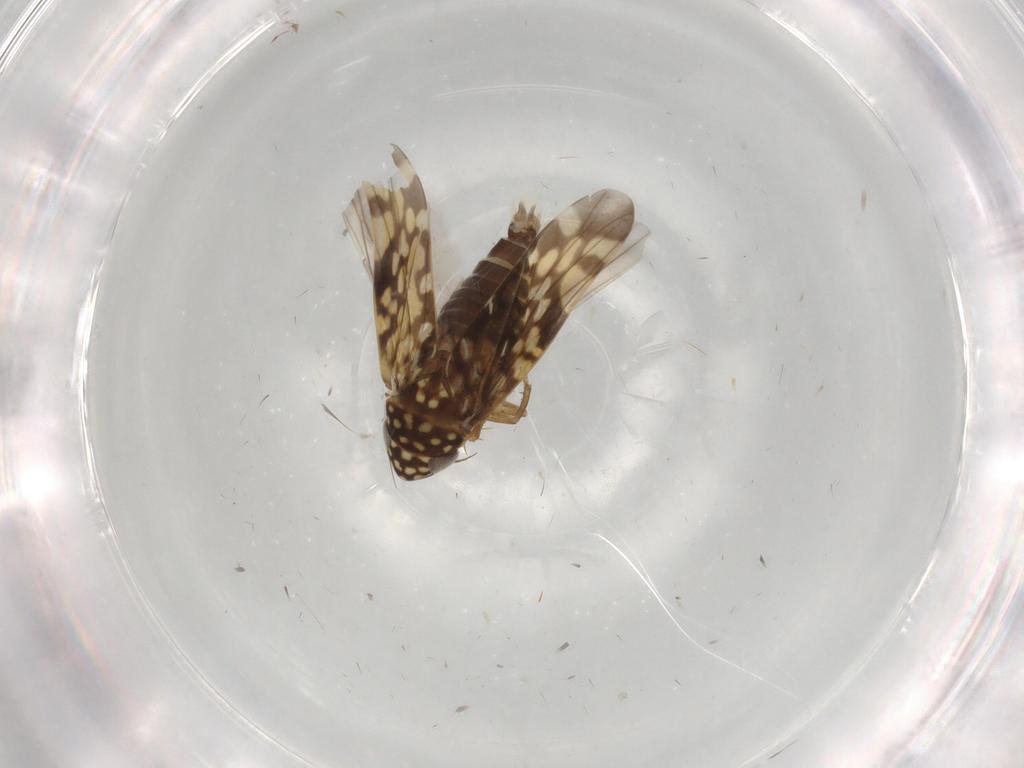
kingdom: Animalia
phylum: Arthropoda
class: Insecta
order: Hemiptera
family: Cicadellidae
